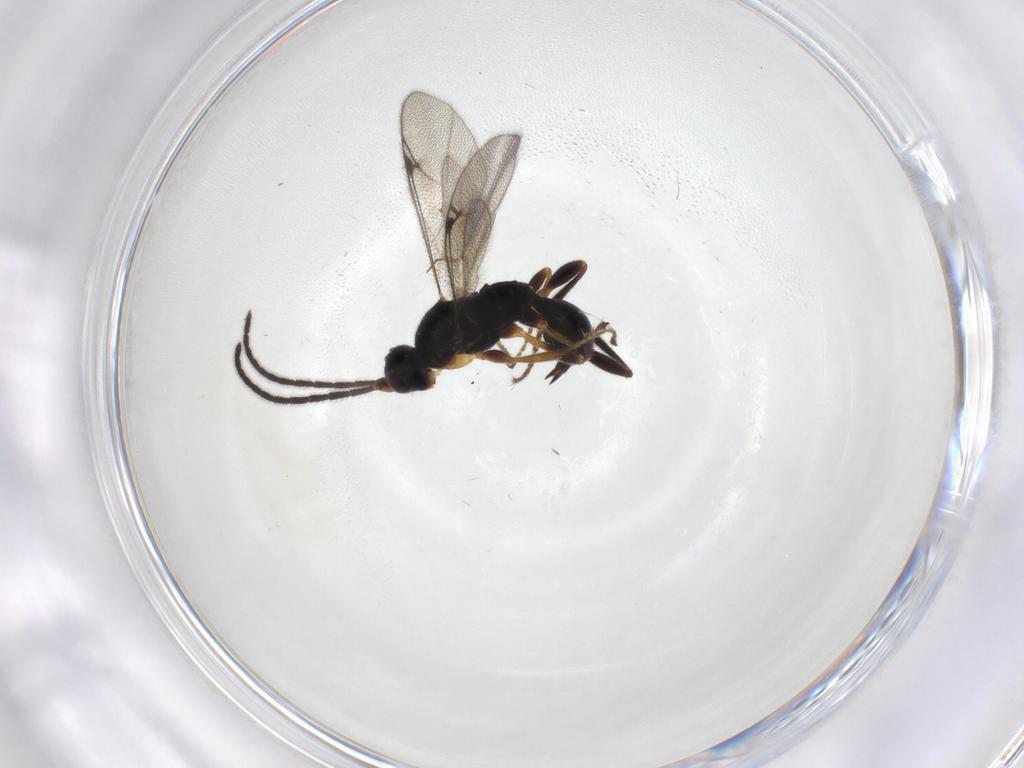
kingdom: Animalia
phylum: Arthropoda
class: Insecta
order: Hymenoptera
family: Proctotrupidae
